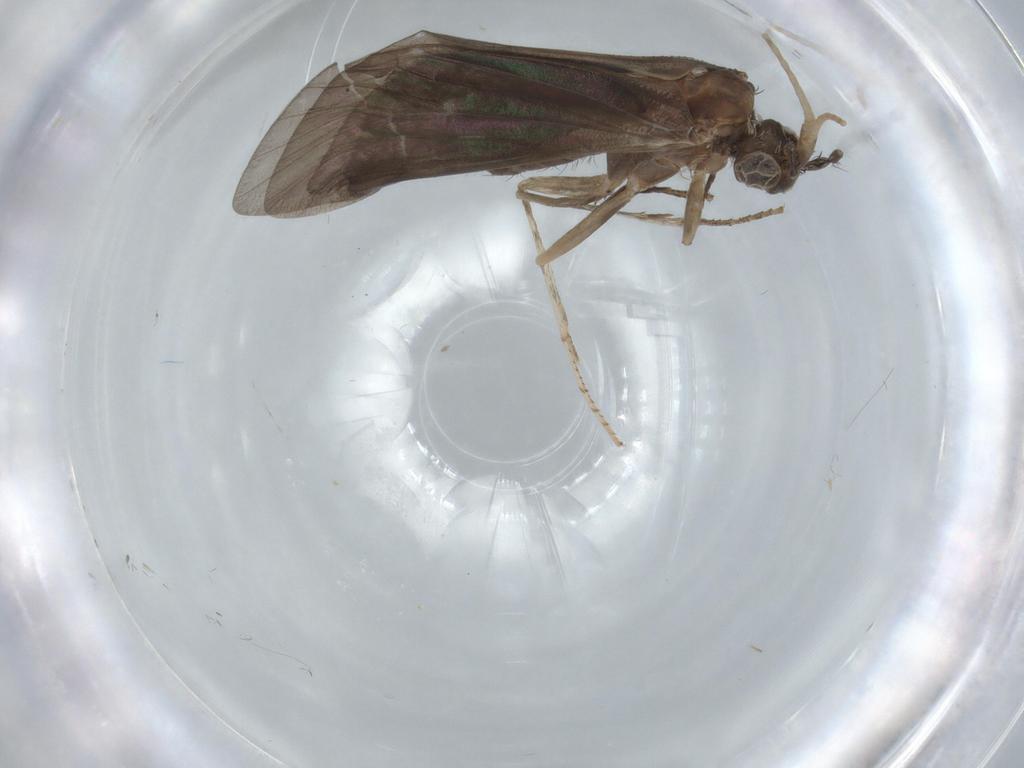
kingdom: Animalia
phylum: Arthropoda
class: Insecta
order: Trichoptera
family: Helicopsychidae
